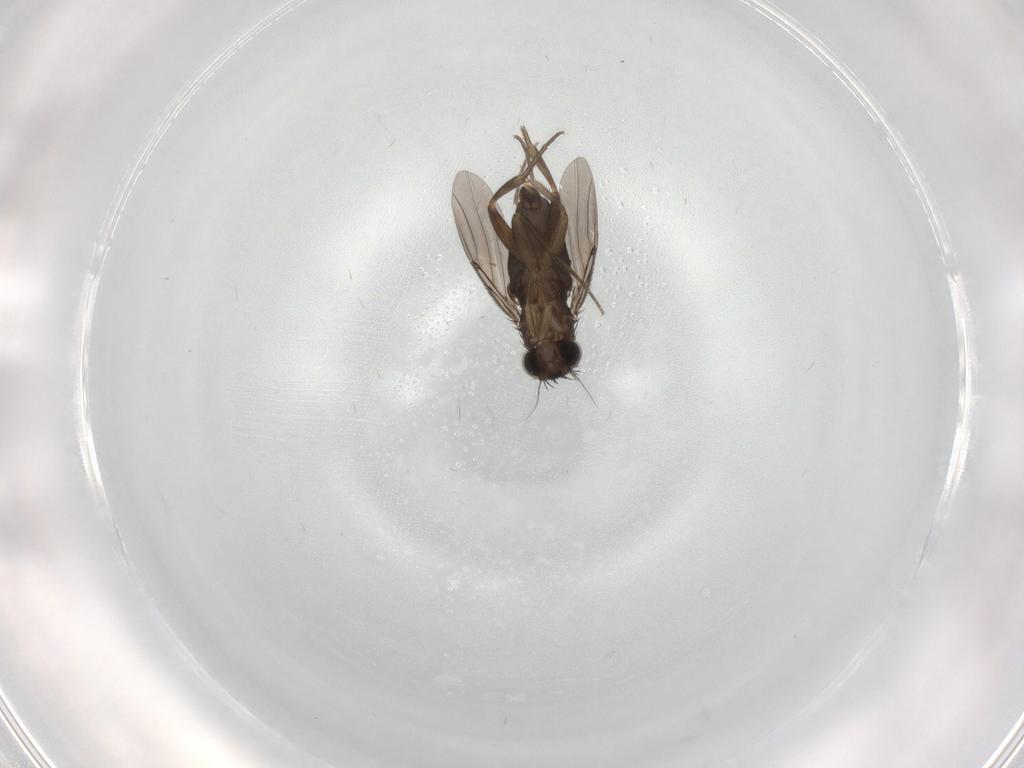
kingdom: Animalia
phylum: Arthropoda
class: Insecta
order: Diptera
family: Phoridae
